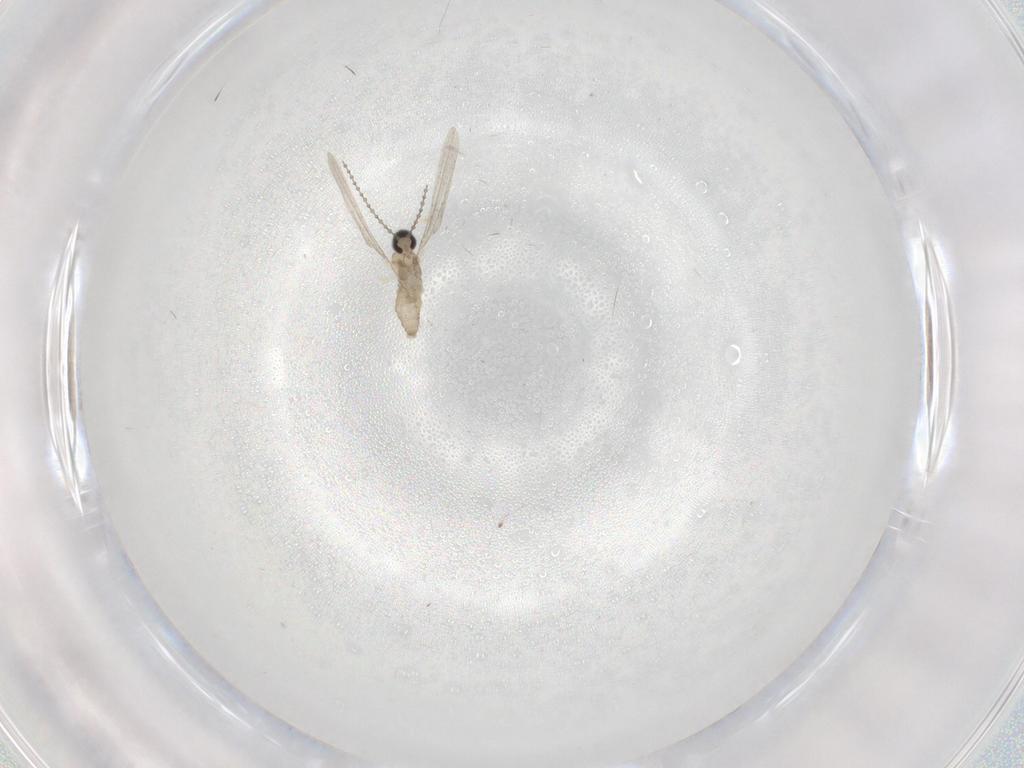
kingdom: Animalia
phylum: Arthropoda
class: Insecta
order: Diptera
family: Cecidomyiidae
